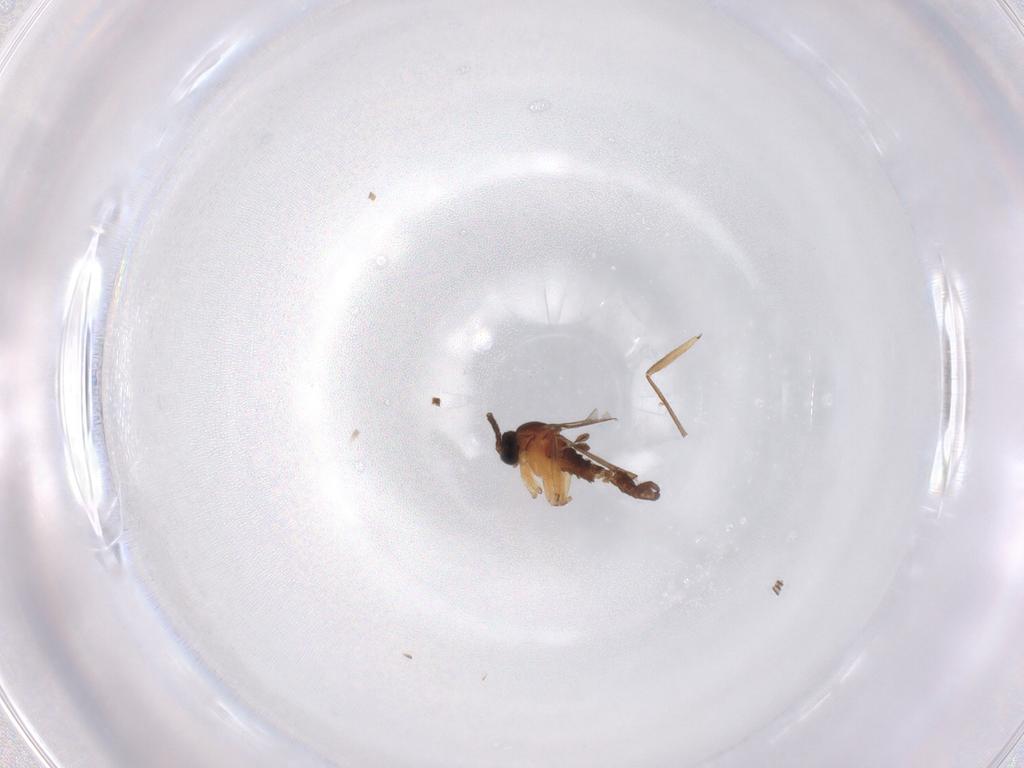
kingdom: Animalia
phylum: Arthropoda
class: Insecta
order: Diptera
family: Sciaridae
